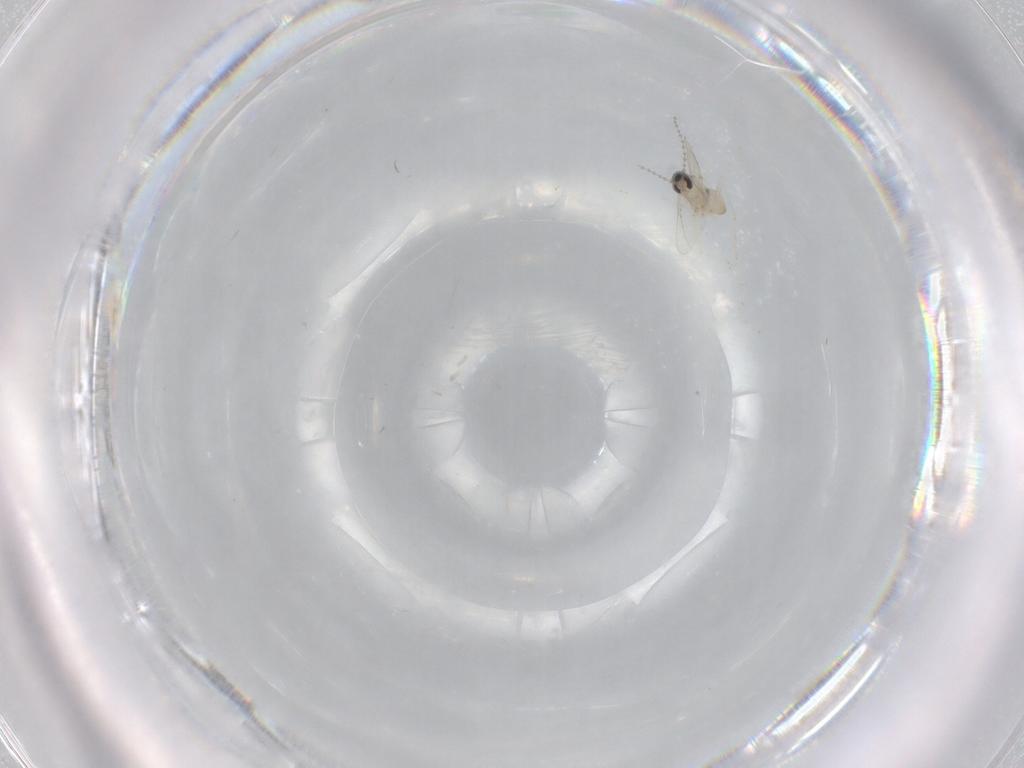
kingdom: Animalia
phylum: Arthropoda
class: Insecta
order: Diptera
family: Cecidomyiidae
